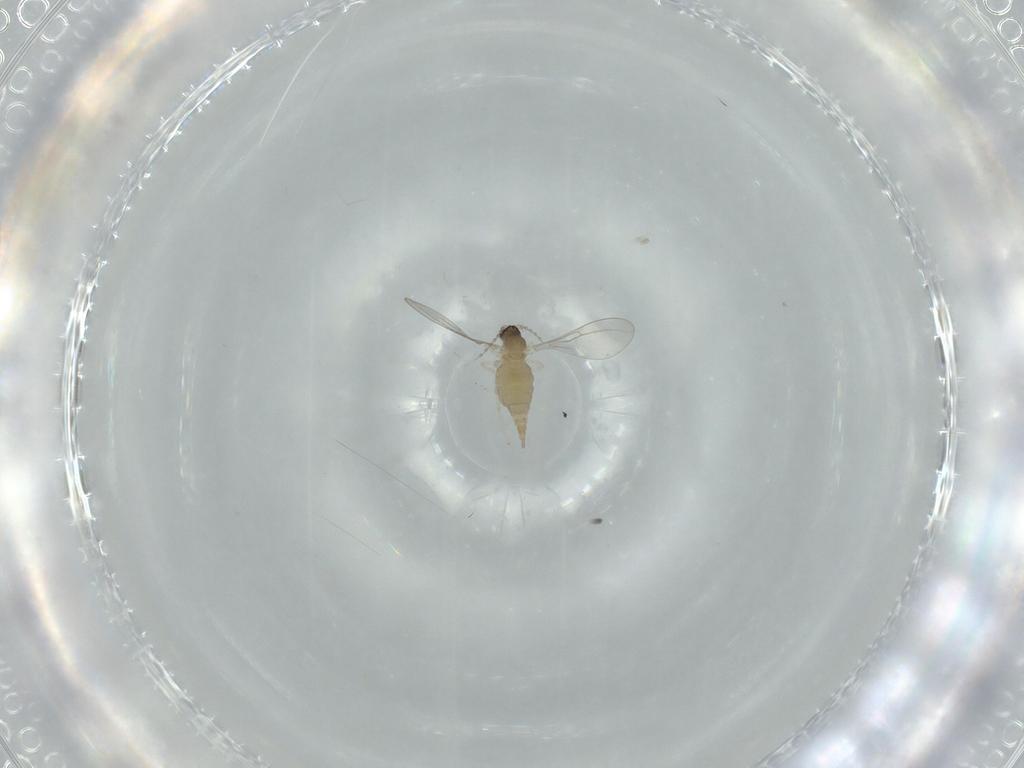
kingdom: Animalia
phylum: Arthropoda
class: Insecta
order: Diptera
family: Cecidomyiidae
